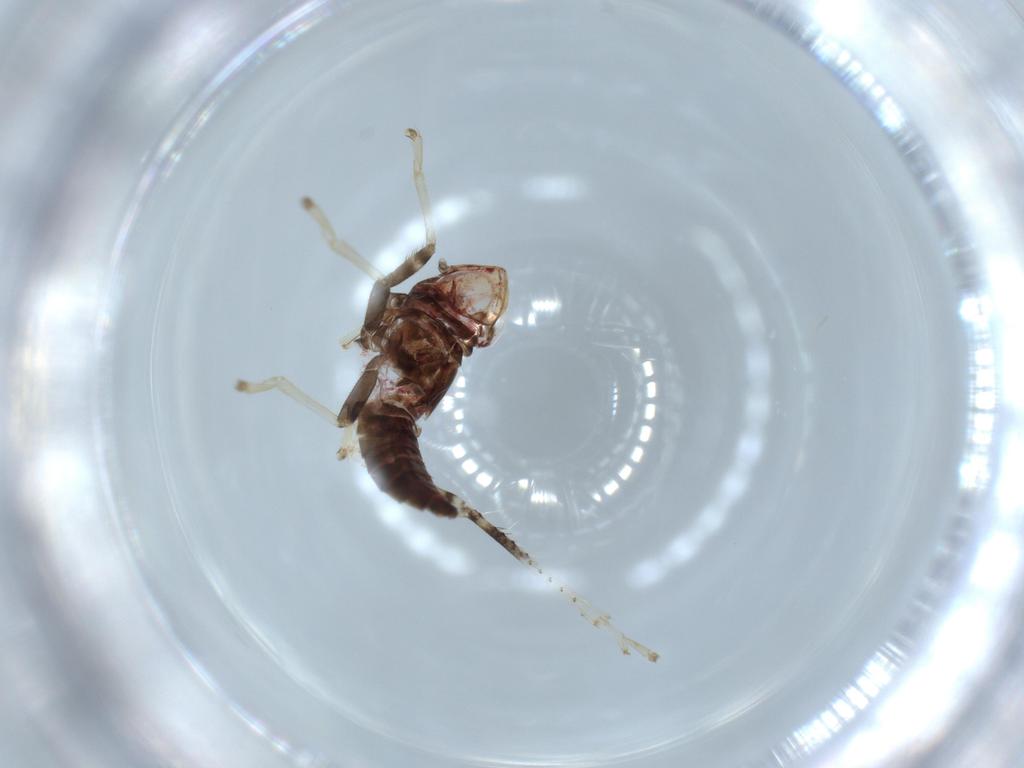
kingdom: Animalia
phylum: Arthropoda
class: Insecta
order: Hemiptera
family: Cicadellidae
